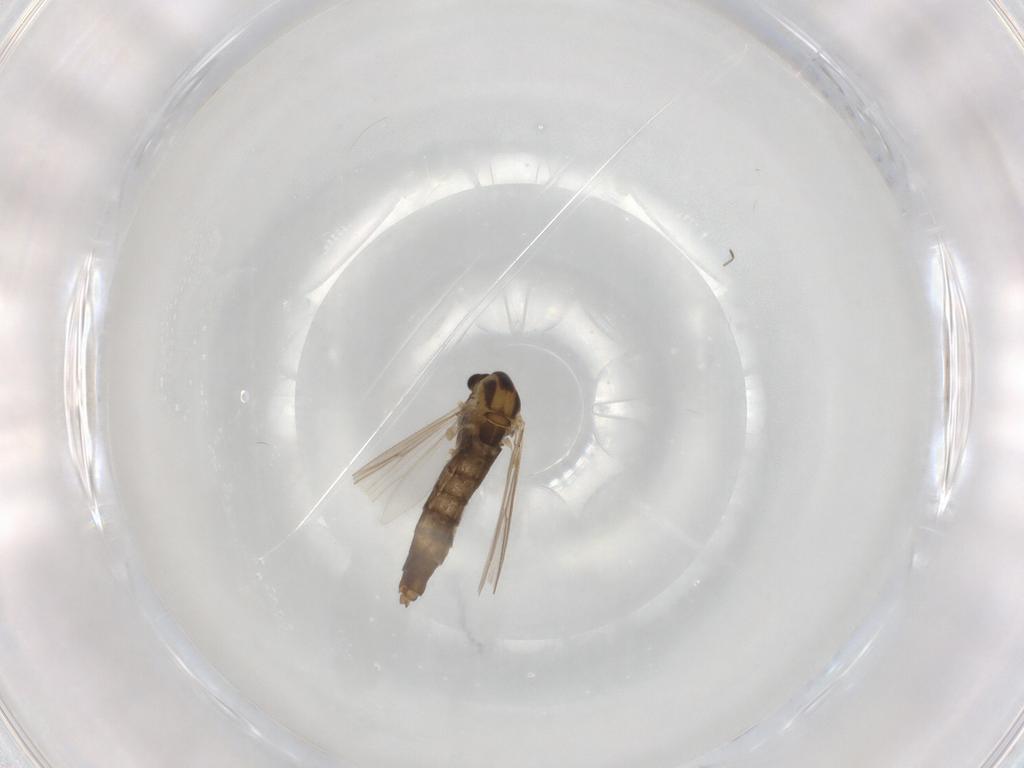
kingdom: Animalia
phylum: Arthropoda
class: Insecta
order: Diptera
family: Chironomidae
